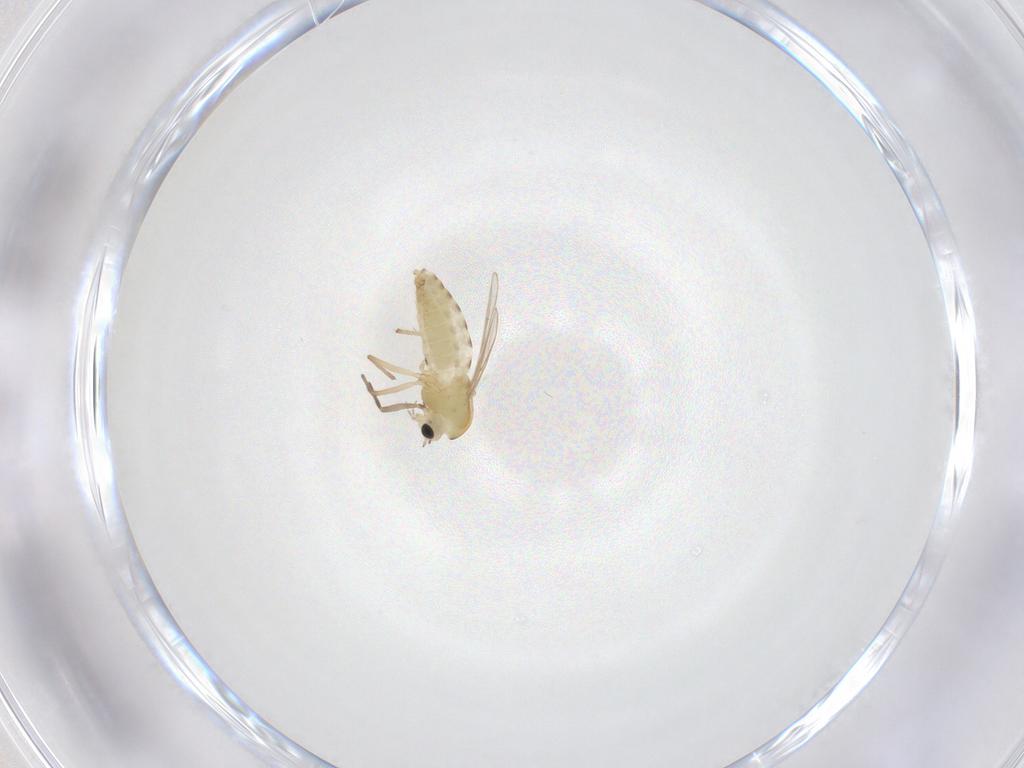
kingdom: Animalia
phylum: Arthropoda
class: Insecta
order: Diptera
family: Chironomidae
